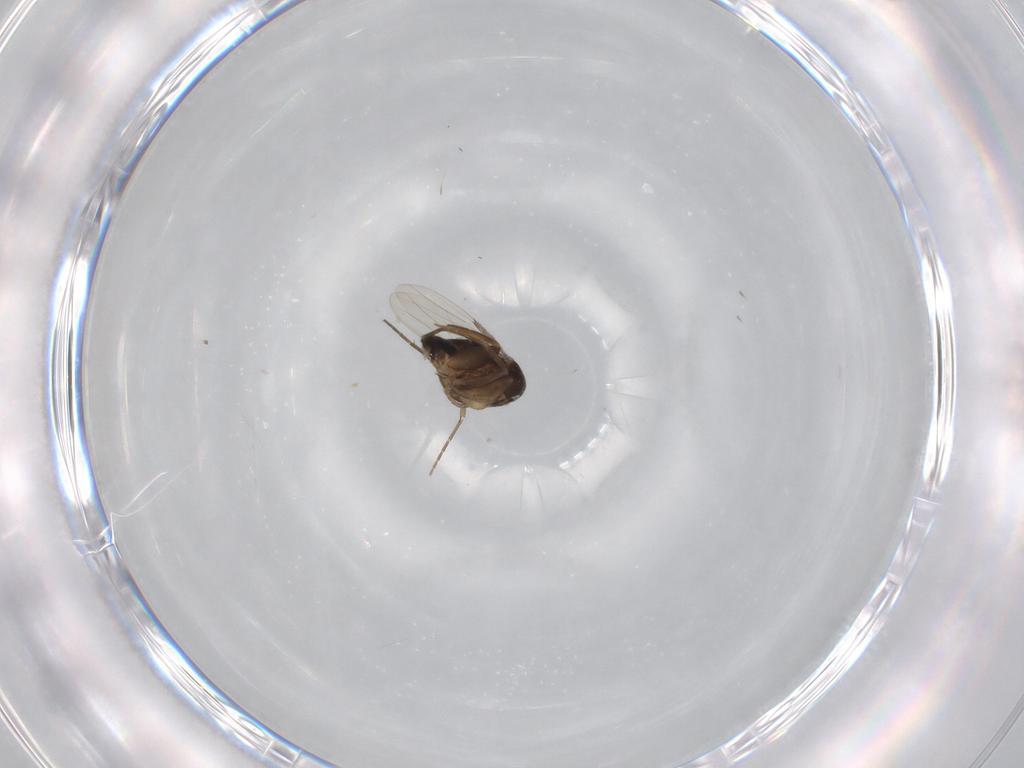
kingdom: Animalia
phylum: Arthropoda
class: Insecta
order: Diptera
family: Phoridae
